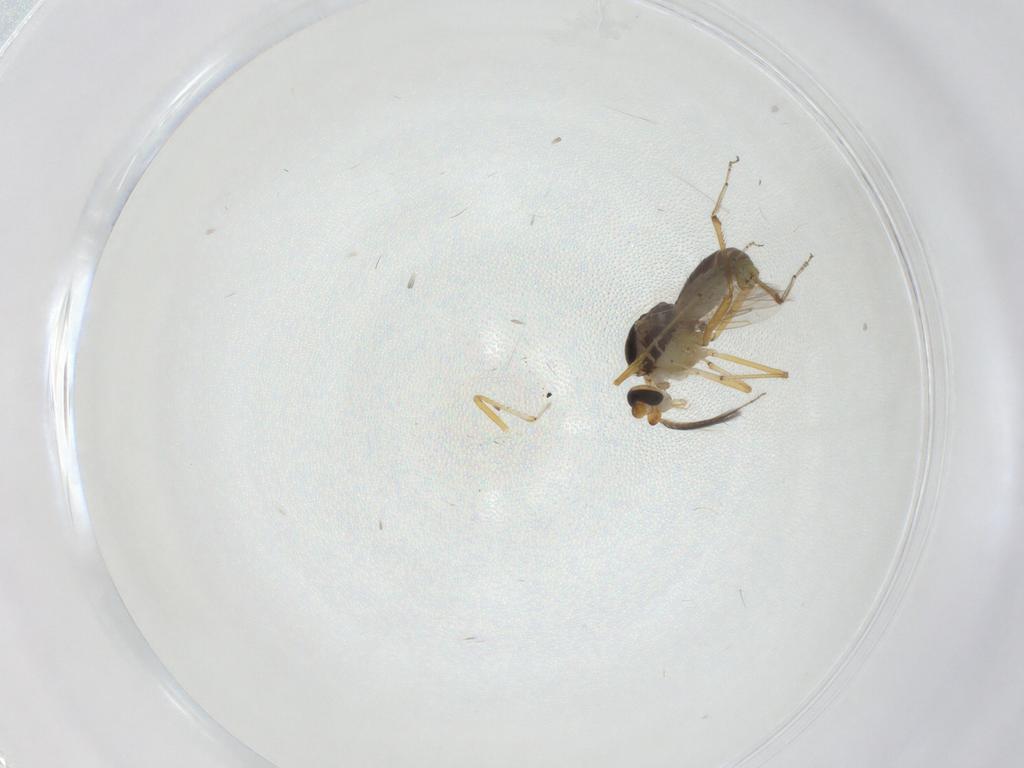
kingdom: Animalia
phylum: Arthropoda
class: Insecta
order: Diptera
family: Ceratopogonidae
